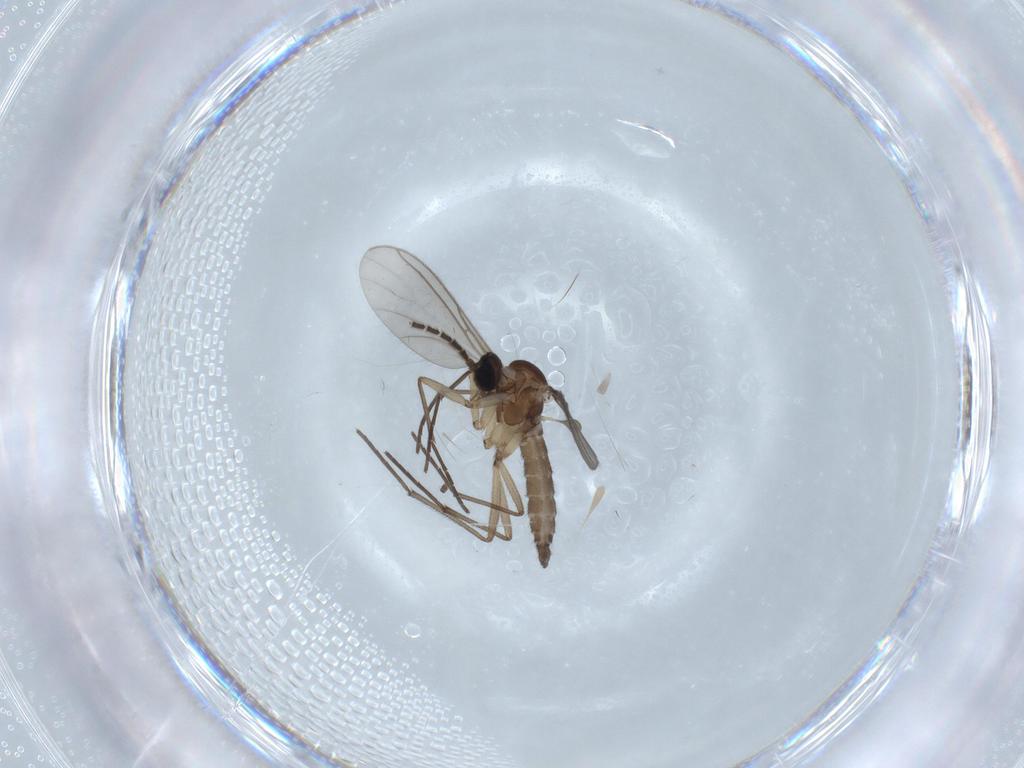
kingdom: Animalia
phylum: Arthropoda
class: Insecta
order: Diptera
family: Sciaridae
